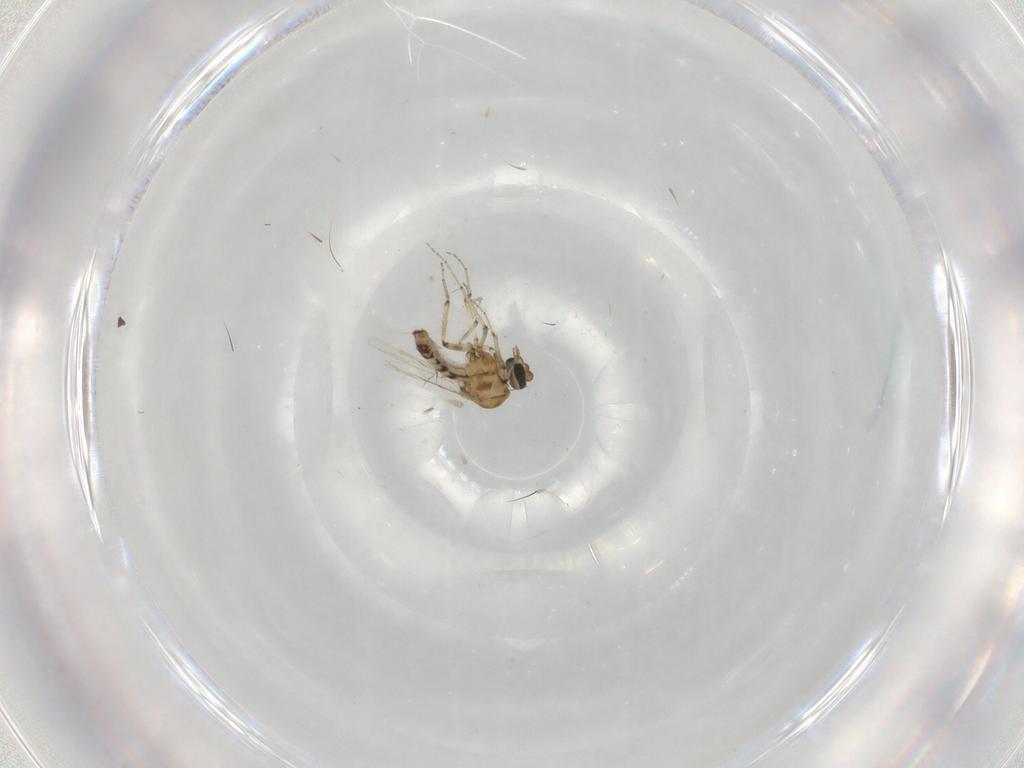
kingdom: Animalia
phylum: Arthropoda
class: Insecta
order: Diptera
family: Ceratopogonidae
